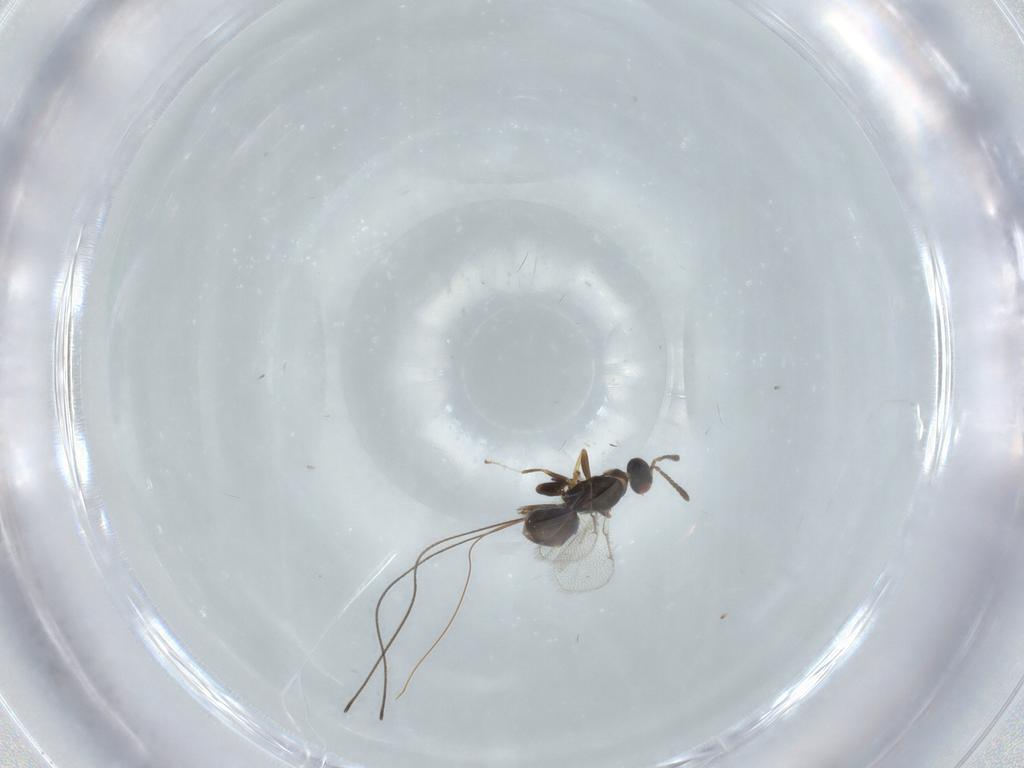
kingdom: Animalia
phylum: Arthropoda
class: Insecta
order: Hymenoptera
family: Torymidae
